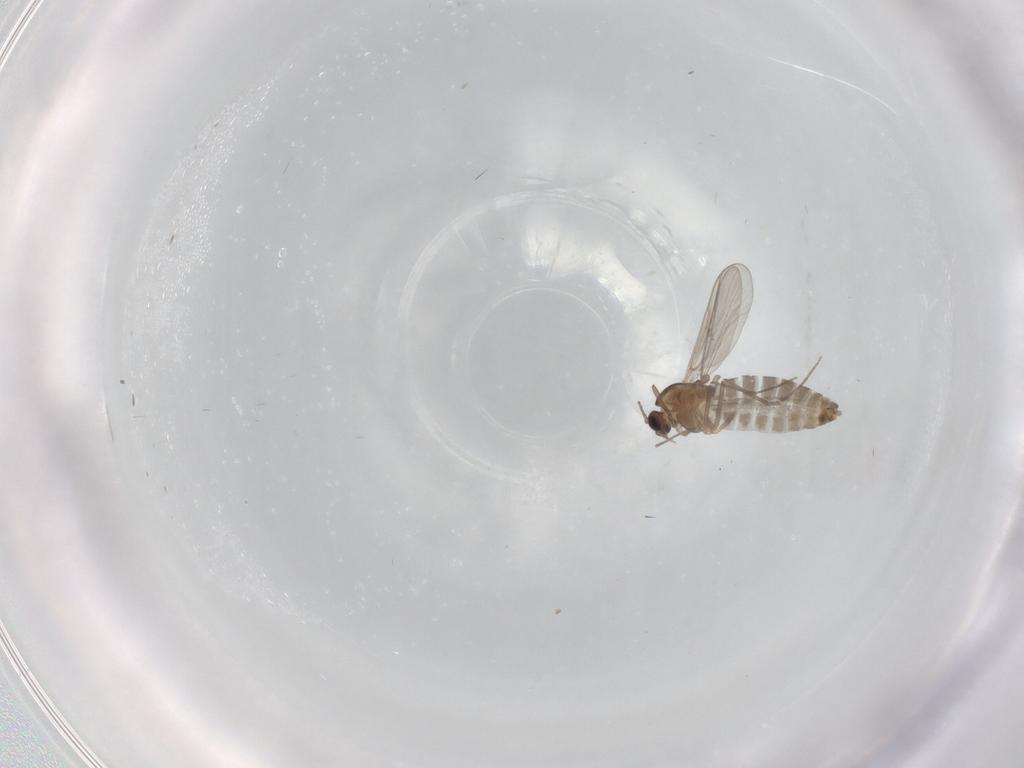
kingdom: Animalia
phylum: Arthropoda
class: Insecta
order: Diptera
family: Chironomidae
